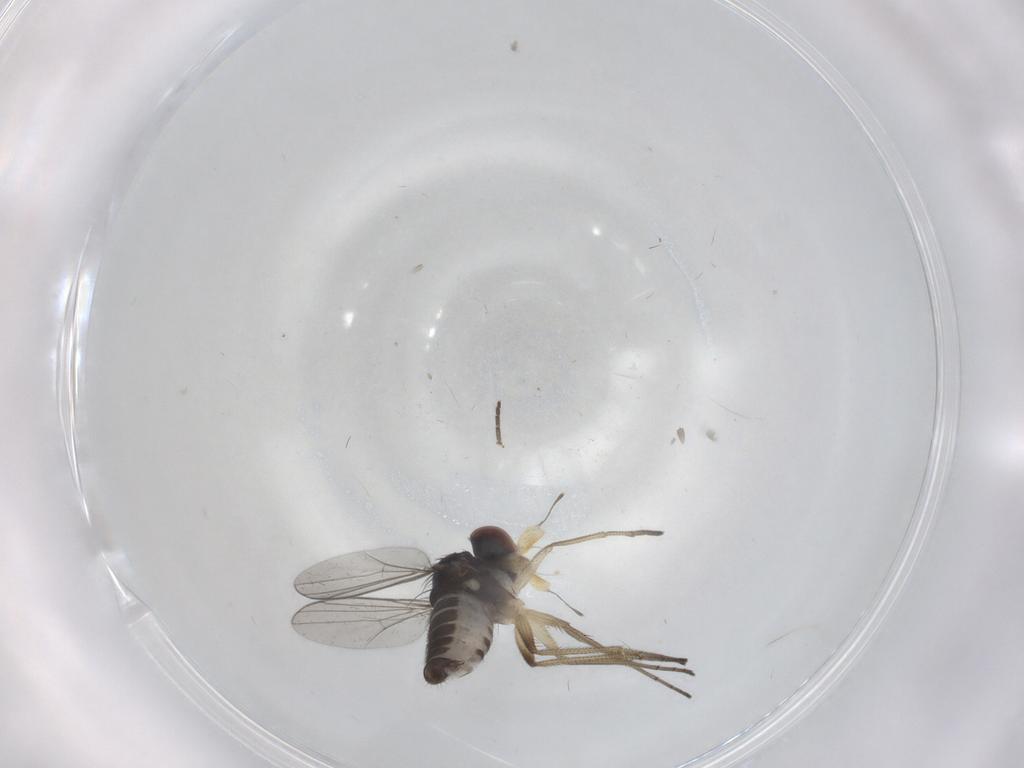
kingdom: Animalia
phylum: Arthropoda
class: Insecta
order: Diptera
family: Dolichopodidae
